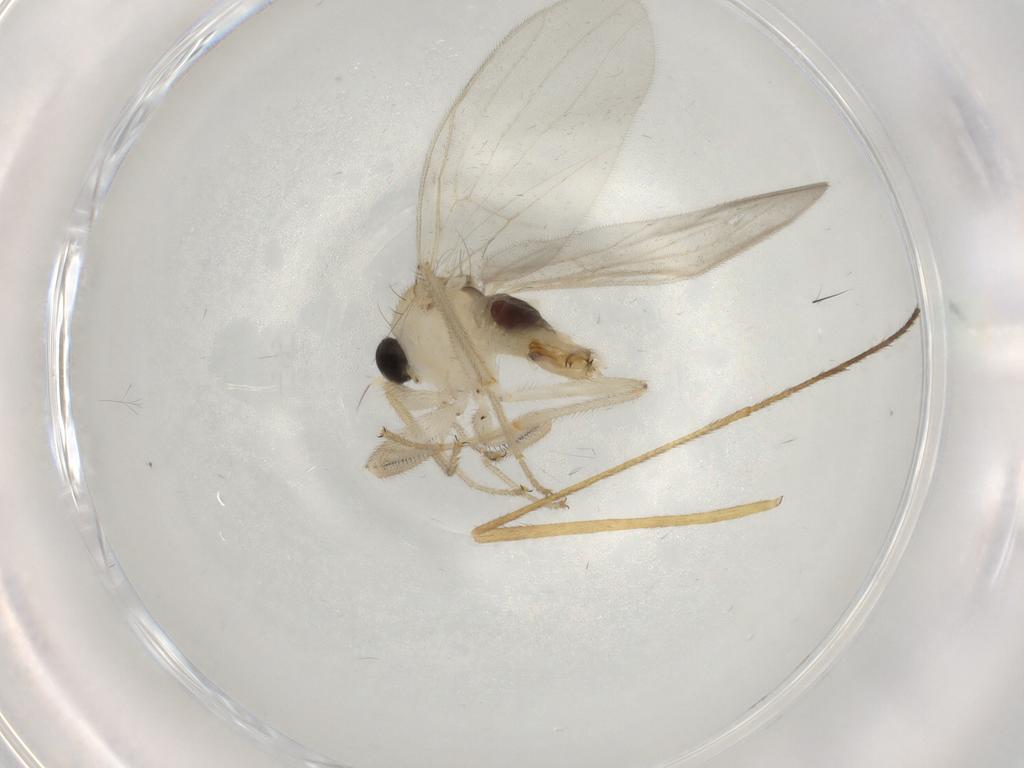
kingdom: Animalia
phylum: Arthropoda
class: Insecta
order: Diptera
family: Hybotidae
